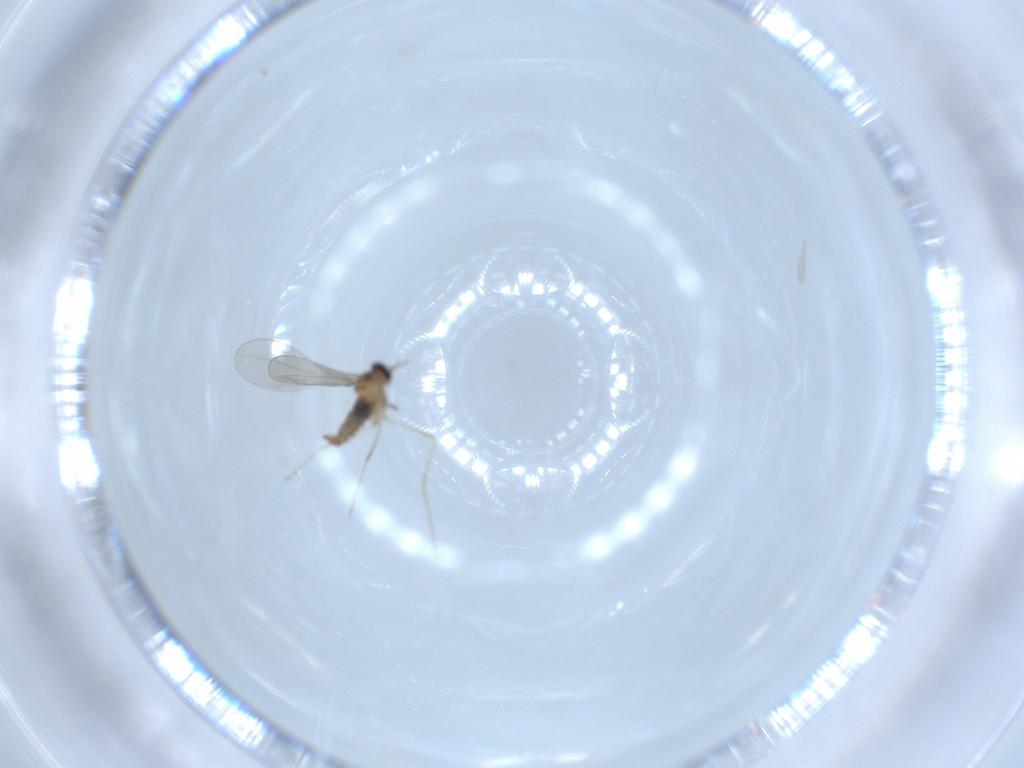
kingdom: Animalia
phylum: Arthropoda
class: Insecta
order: Diptera
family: Cecidomyiidae
